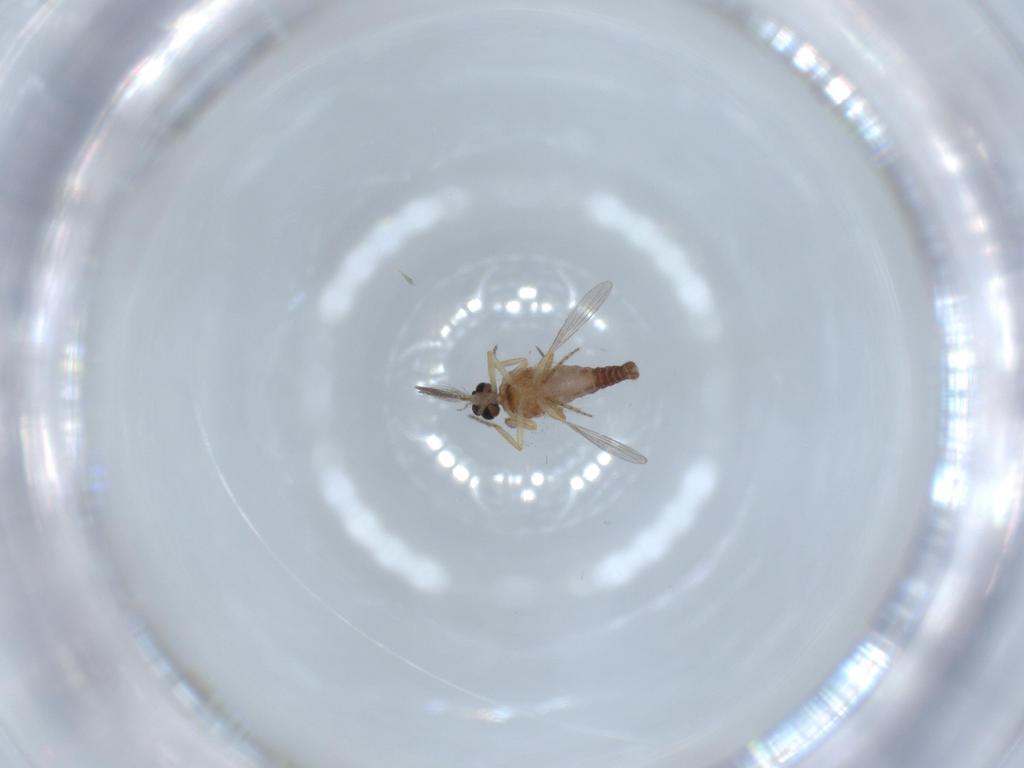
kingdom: Animalia
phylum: Arthropoda
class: Insecta
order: Diptera
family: Ceratopogonidae
